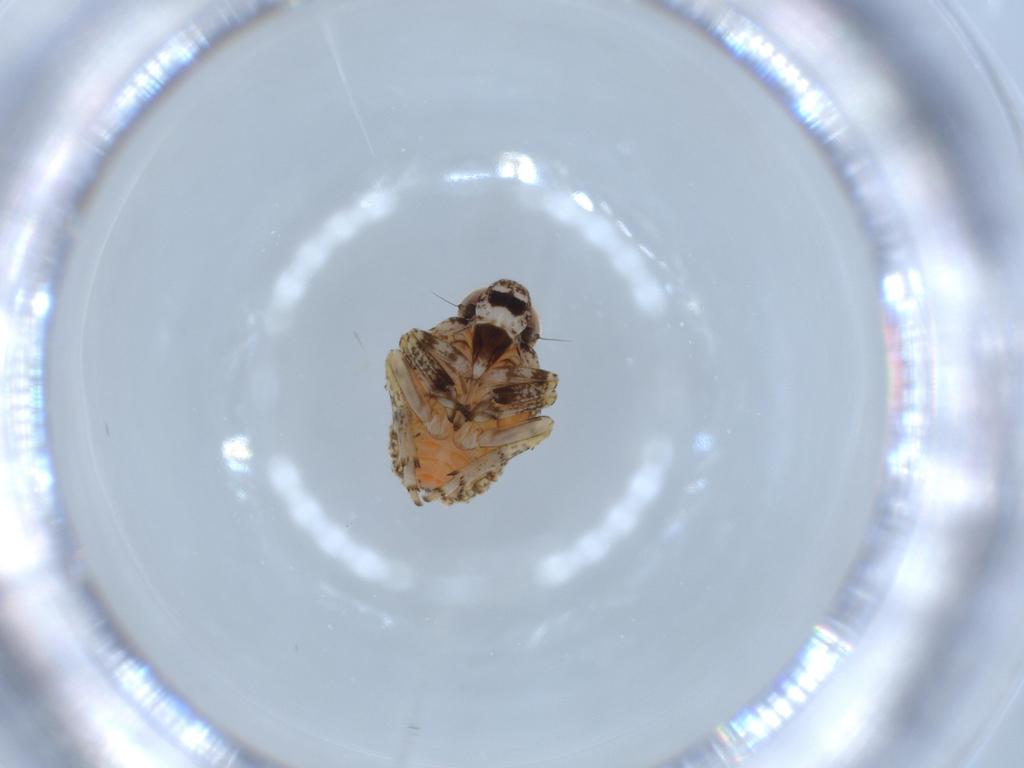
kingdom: Animalia
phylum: Arthropoda
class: Insecta
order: Hemiptera
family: Issidae
